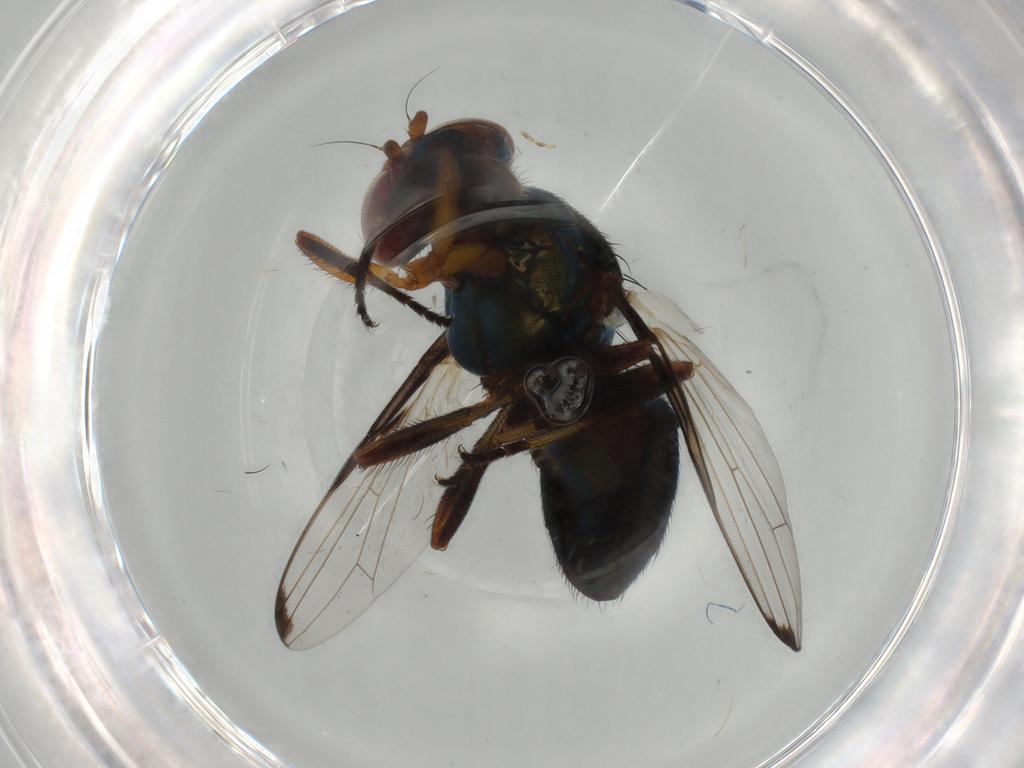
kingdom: Animalia
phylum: Arthropoda
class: Insecta
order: Diptera
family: Ulidiidae
